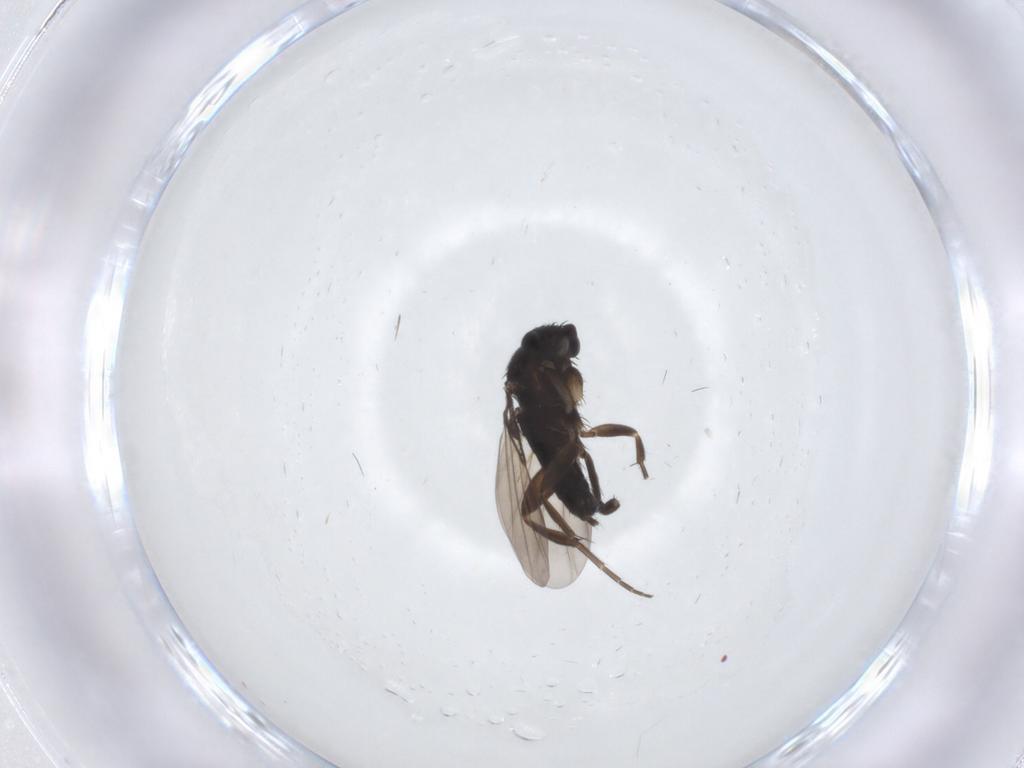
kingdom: Animalia
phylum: Arthropoda
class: Insecta
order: Diptera
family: Phoridae
